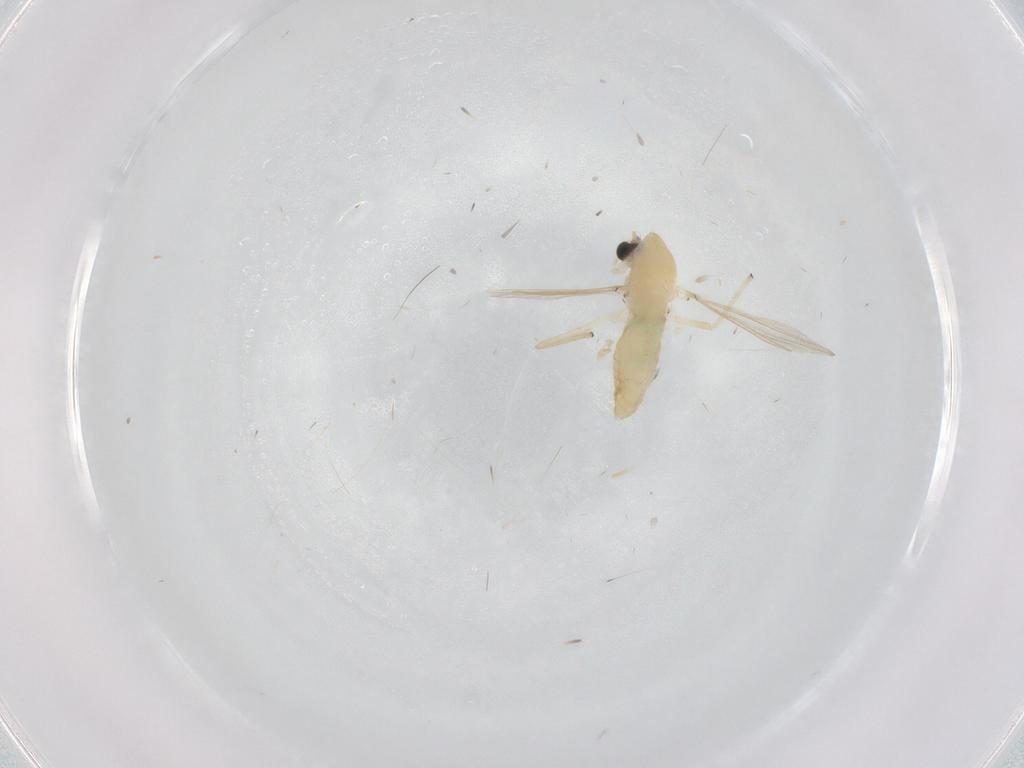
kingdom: Animalia
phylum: Arthropoda
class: Insecta
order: Diptera
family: Chironomidae
